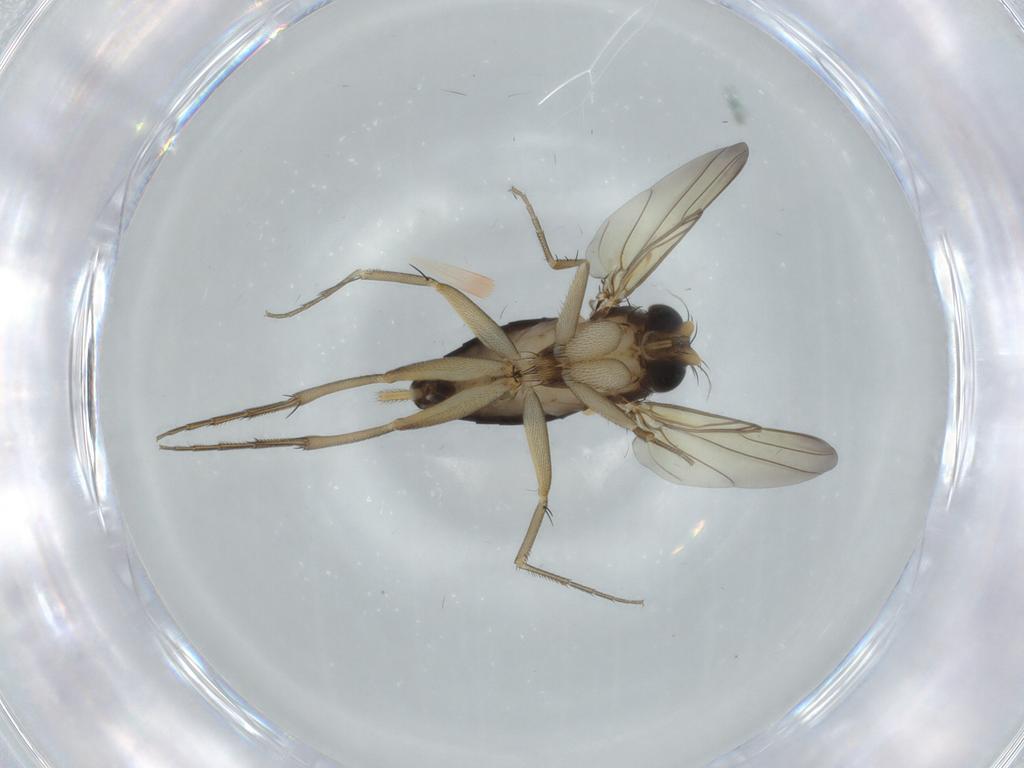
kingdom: Animalia
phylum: Arthropoda
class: Insecta
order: Diptera
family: Phoridae
